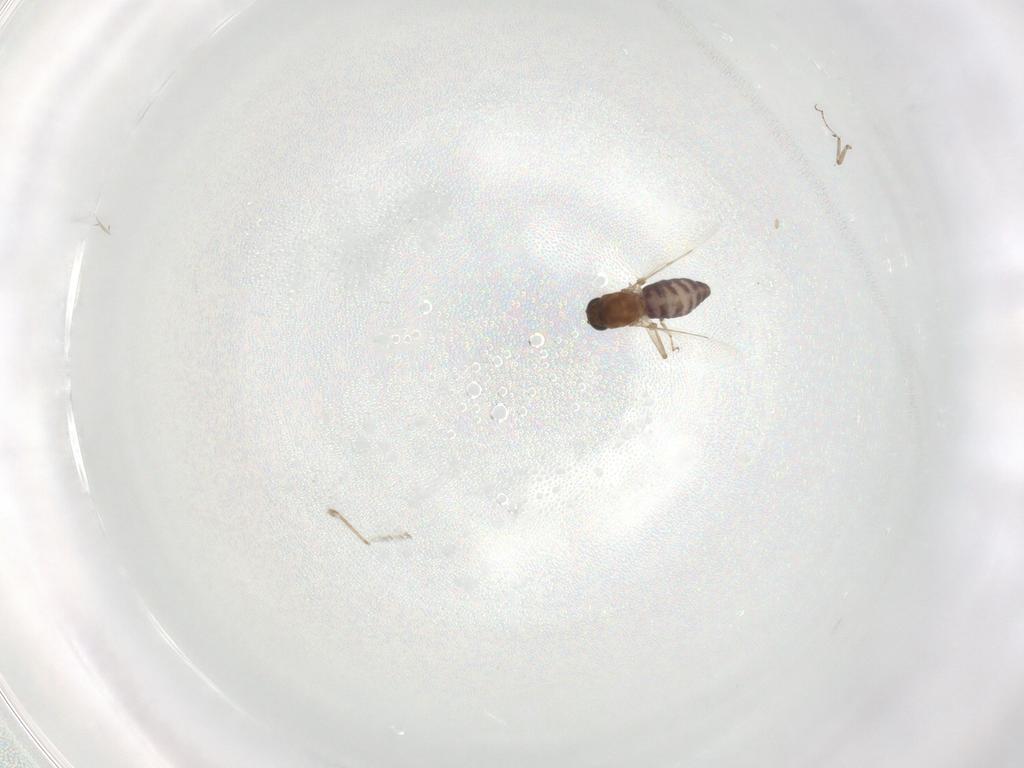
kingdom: Animalia
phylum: Arthropoda
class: Insecta
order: Diptera
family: Ceratopogonidae
